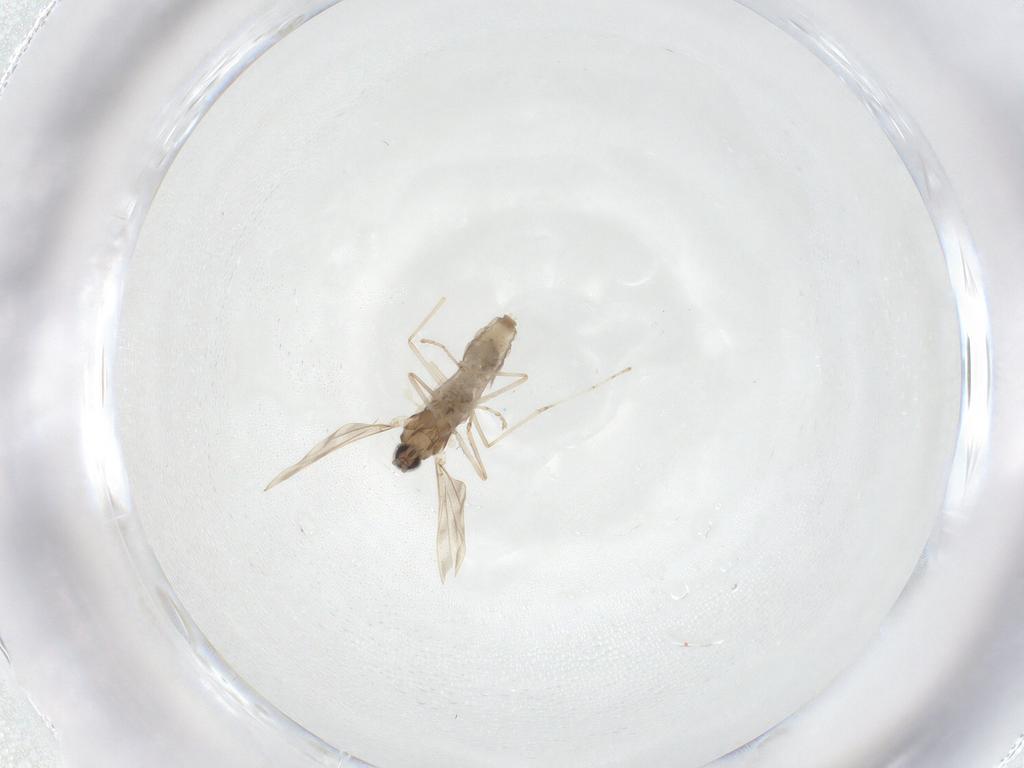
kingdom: Animalia
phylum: Arthropoda
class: Insecta
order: Diptera
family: Cecidomyiidae
